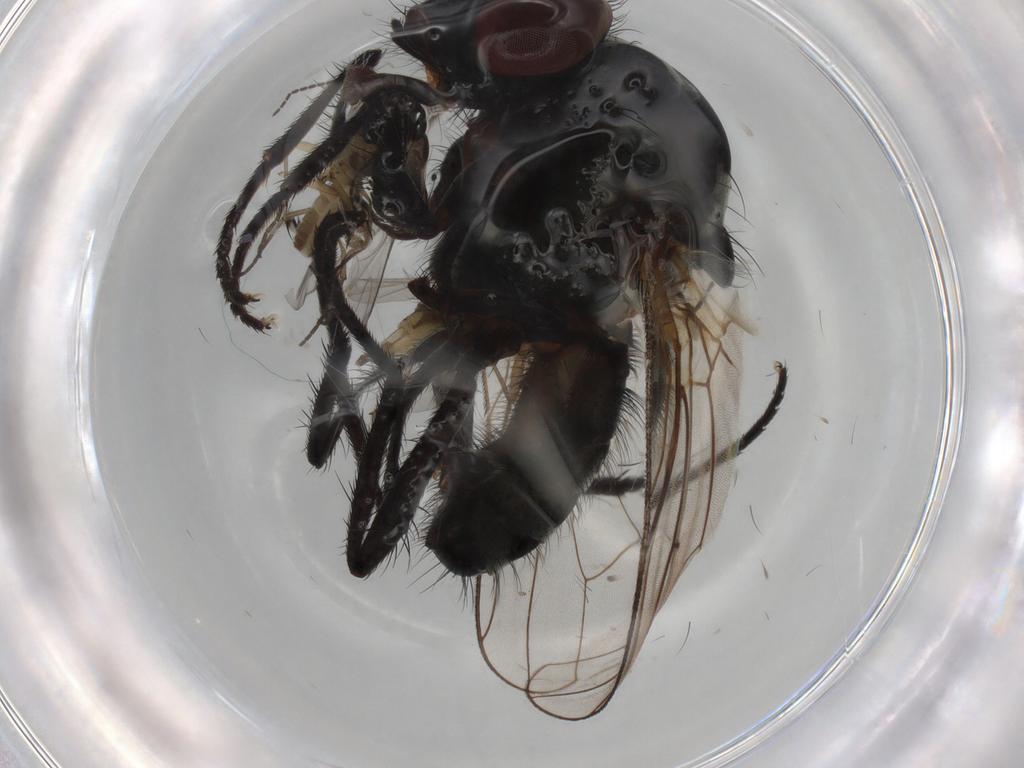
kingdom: Animalia
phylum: Arthropoda
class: Insecta
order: Diptera
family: Anthomyiidae
